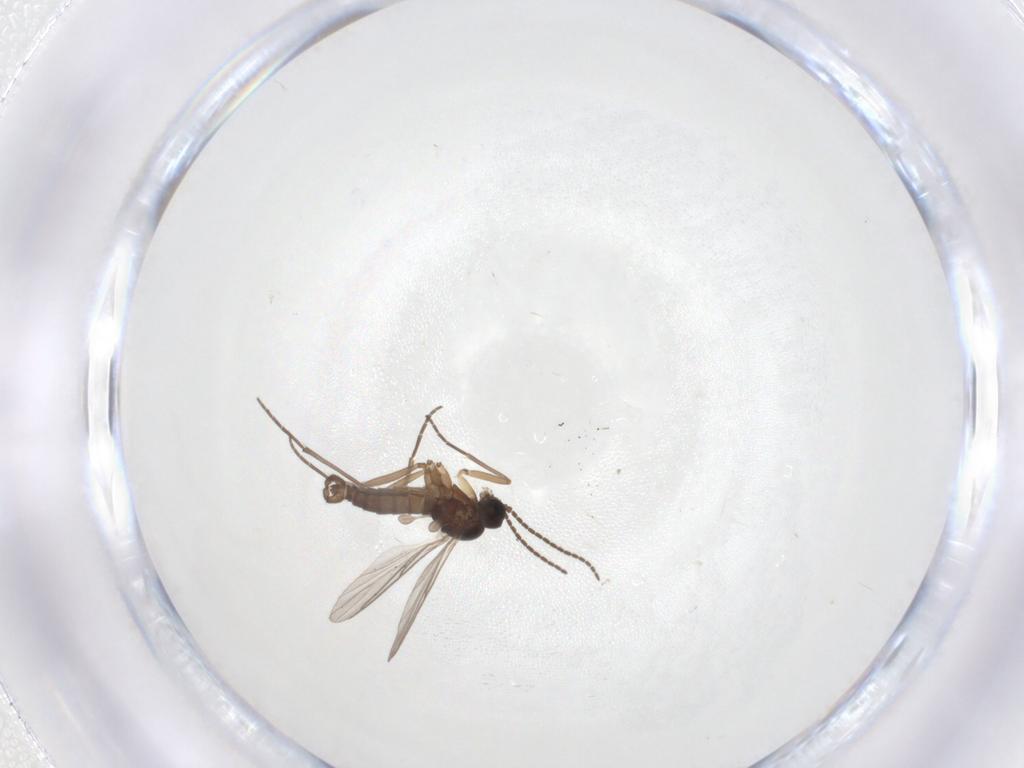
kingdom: Animalia
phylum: Arthropoda
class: Insecta
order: Diptera
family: Sciaridae
